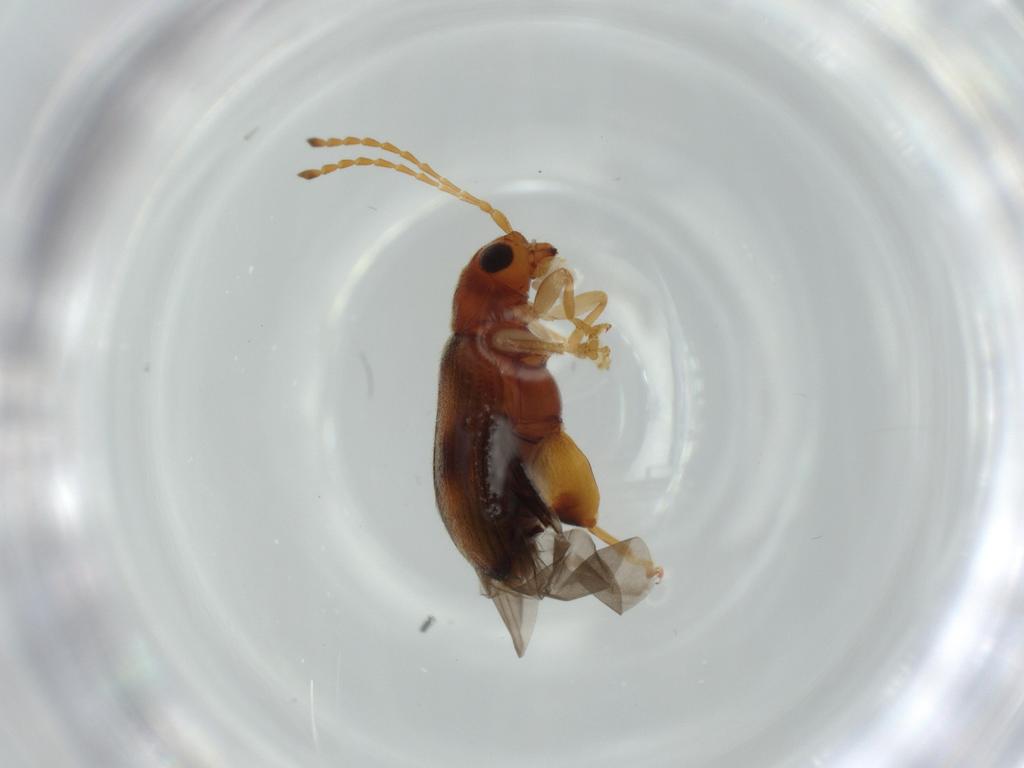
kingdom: Animalia
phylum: Arthropoda
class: Insecta
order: Coleoptera
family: Chrysomelidae
